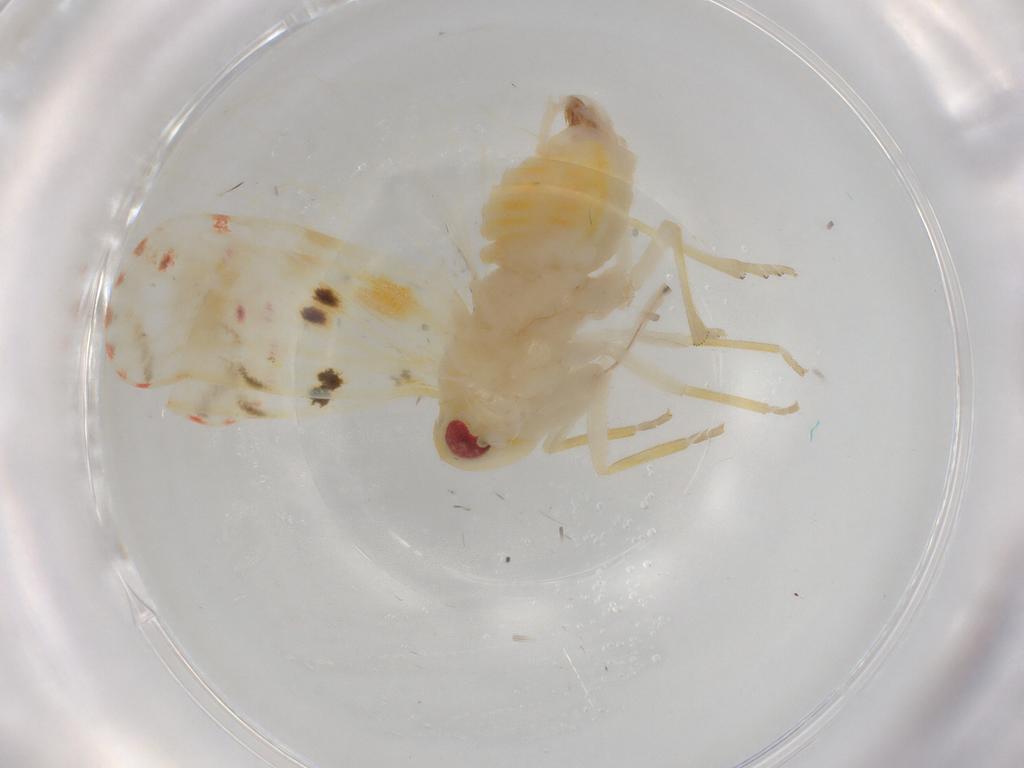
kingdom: Animalia
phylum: Arthropoda
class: Insecta
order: Hemiptera
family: Derbidae
